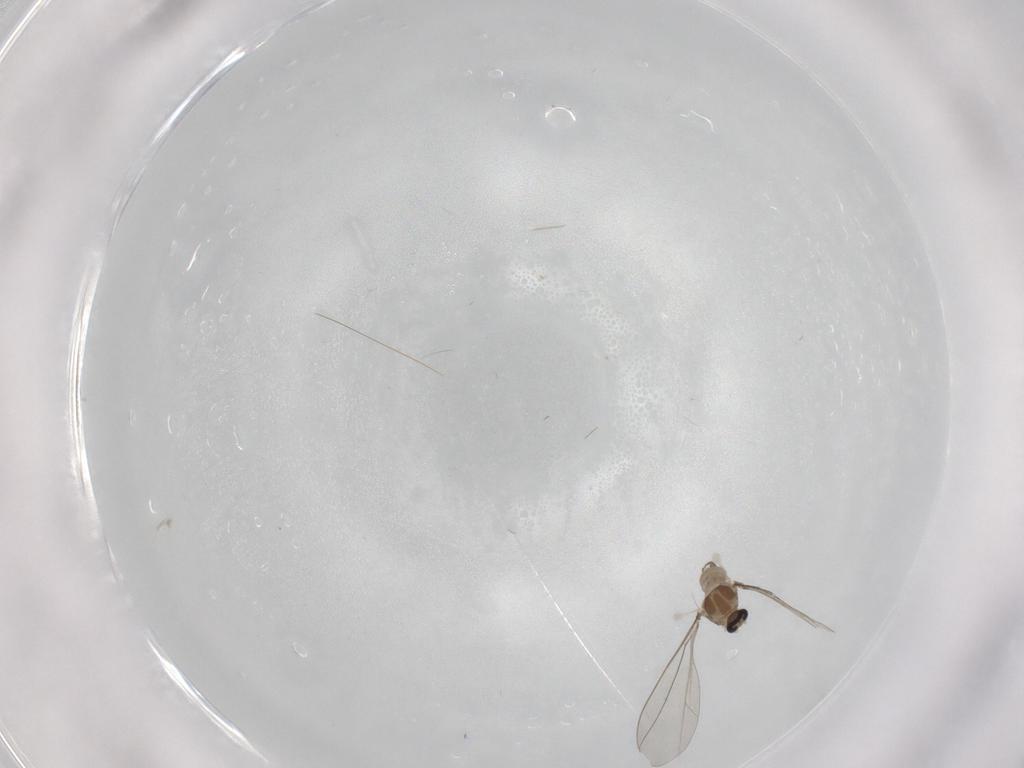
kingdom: Animalia
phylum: Arthropoda
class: Insecta
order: Diptera
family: Cecidomyiidae
